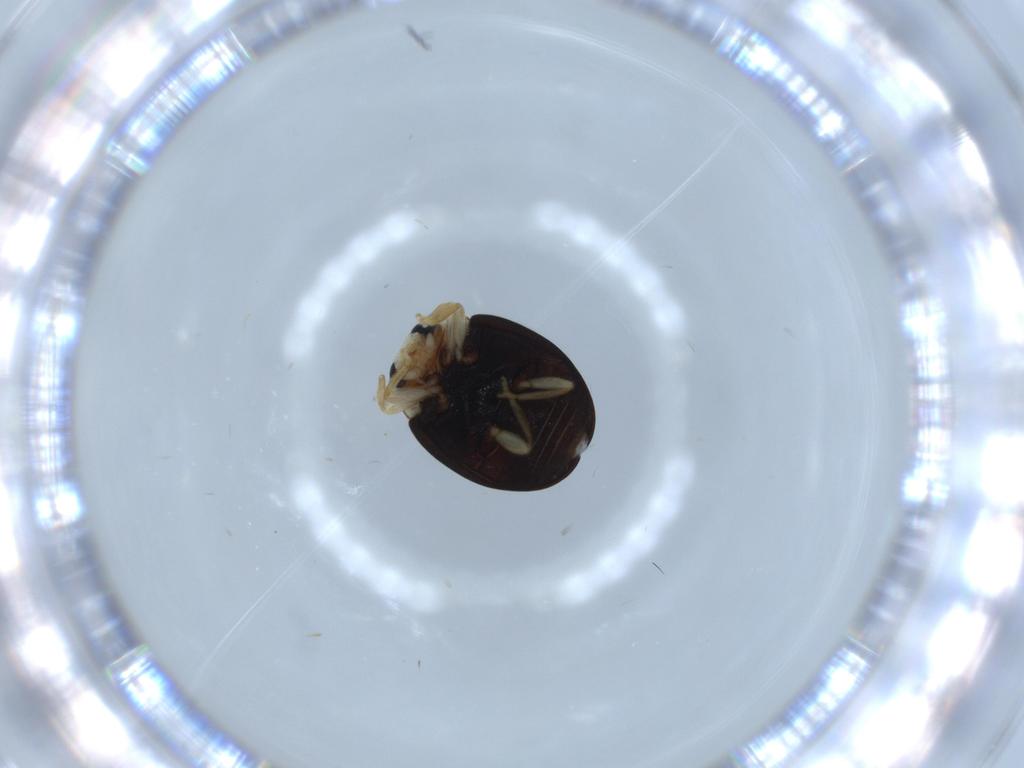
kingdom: Animalia
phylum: Arthropoda
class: Insecta
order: Coleoptera
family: Coccinellidae
